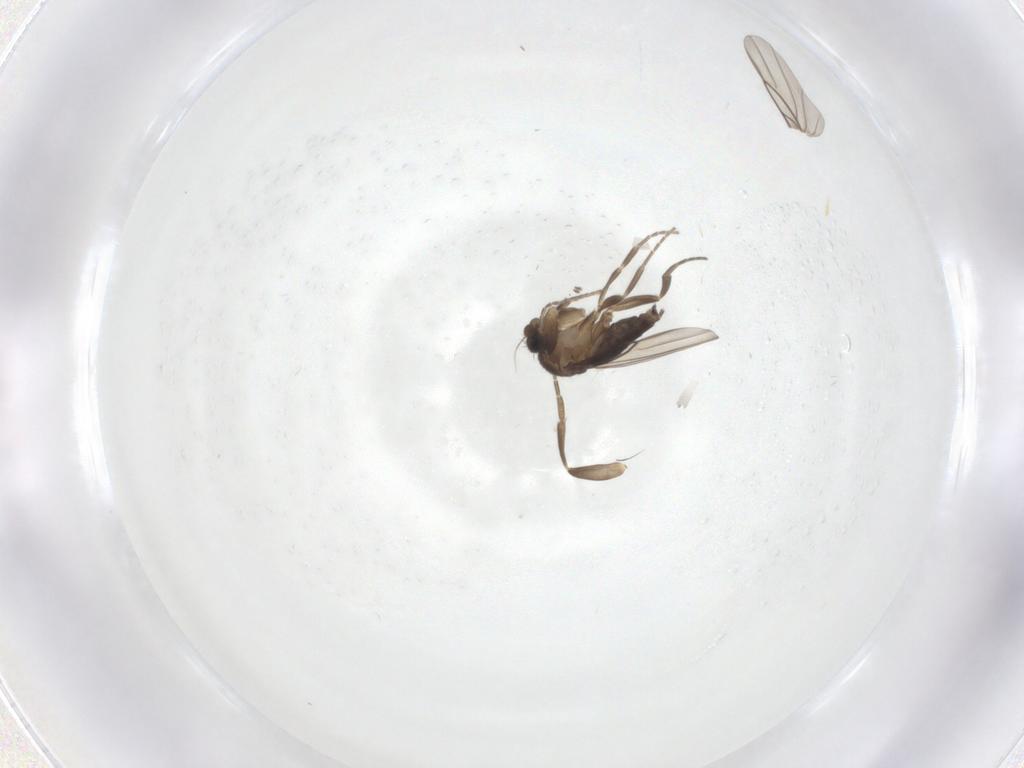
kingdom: Animalia
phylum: Arthropoda
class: Insecta
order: Diptera
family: Phoridae
